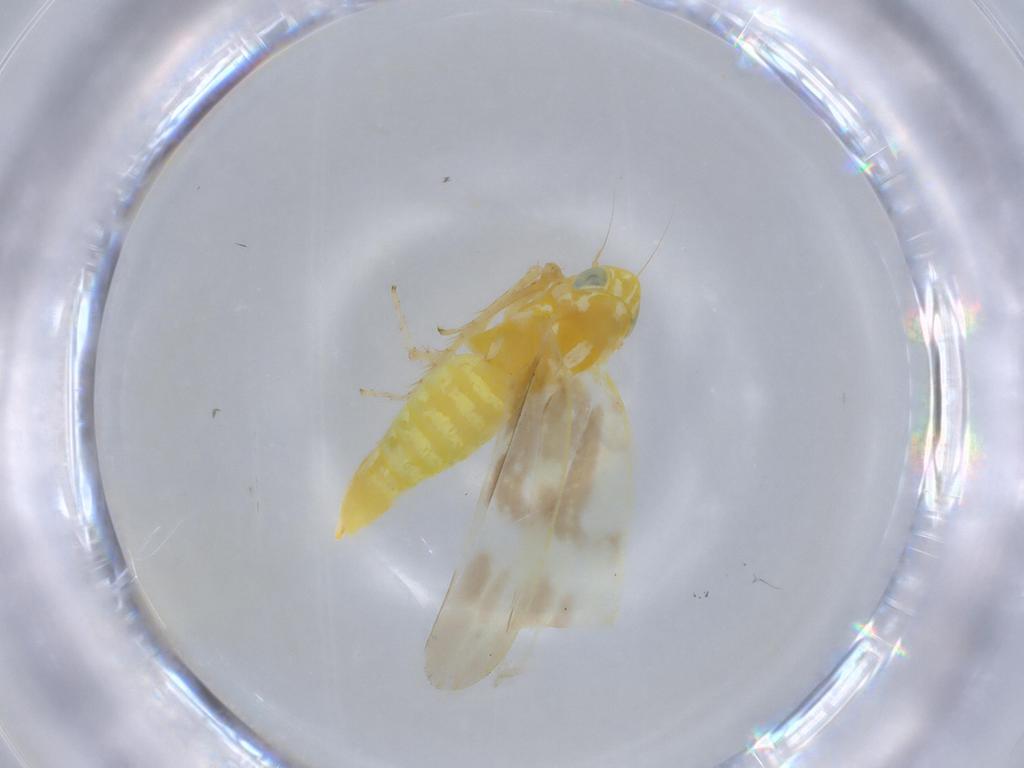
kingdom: Animalia
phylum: Arthropoda
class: Insecta
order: Hemiptera
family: Cicadellidae
